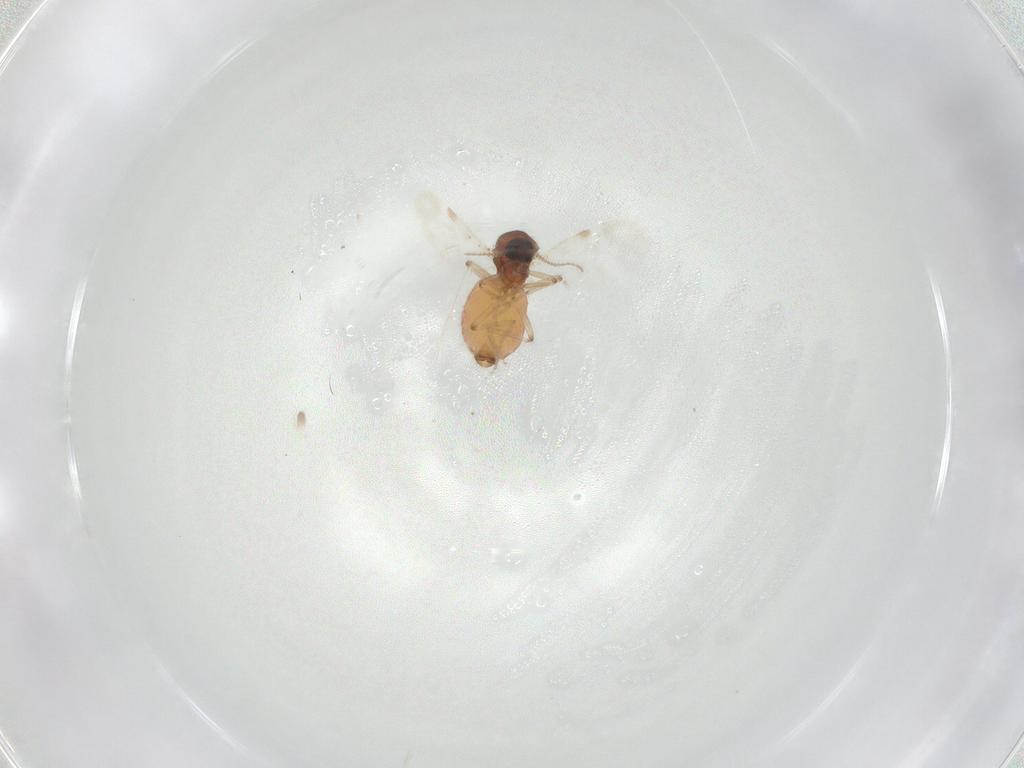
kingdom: Animalia
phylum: Arthropoda
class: Insecta
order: Diptera
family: Ceratopogonidae
